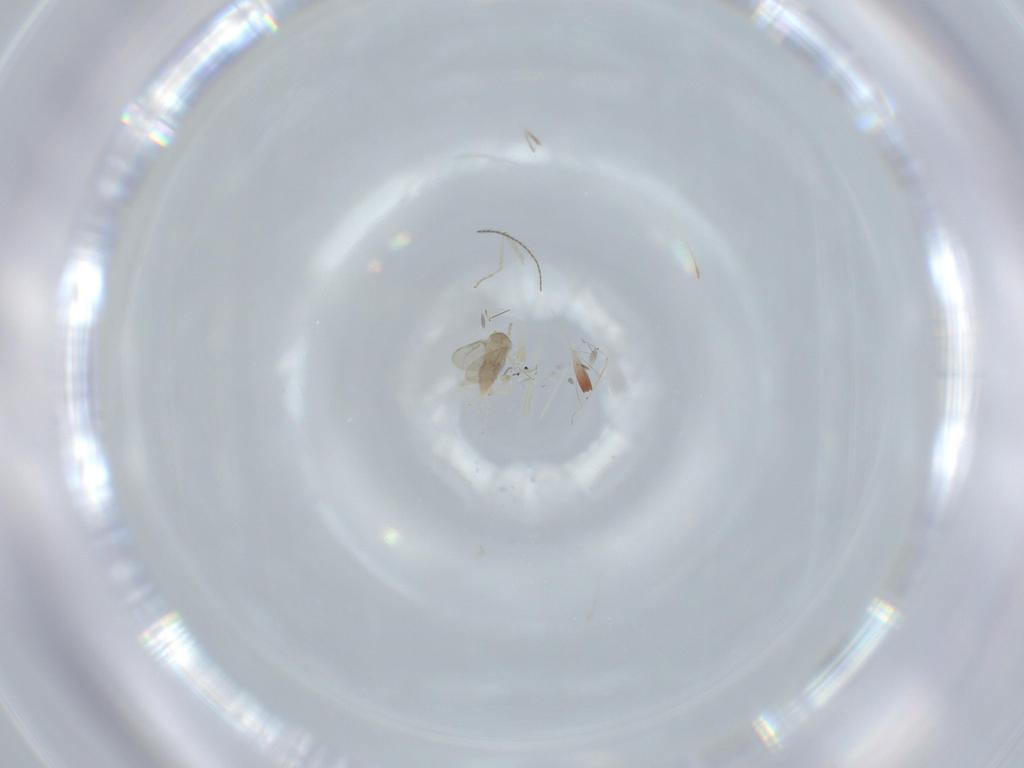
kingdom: Animalia
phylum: Arthropoda
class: Insecta
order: Diptera
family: Cecidomyiidae
